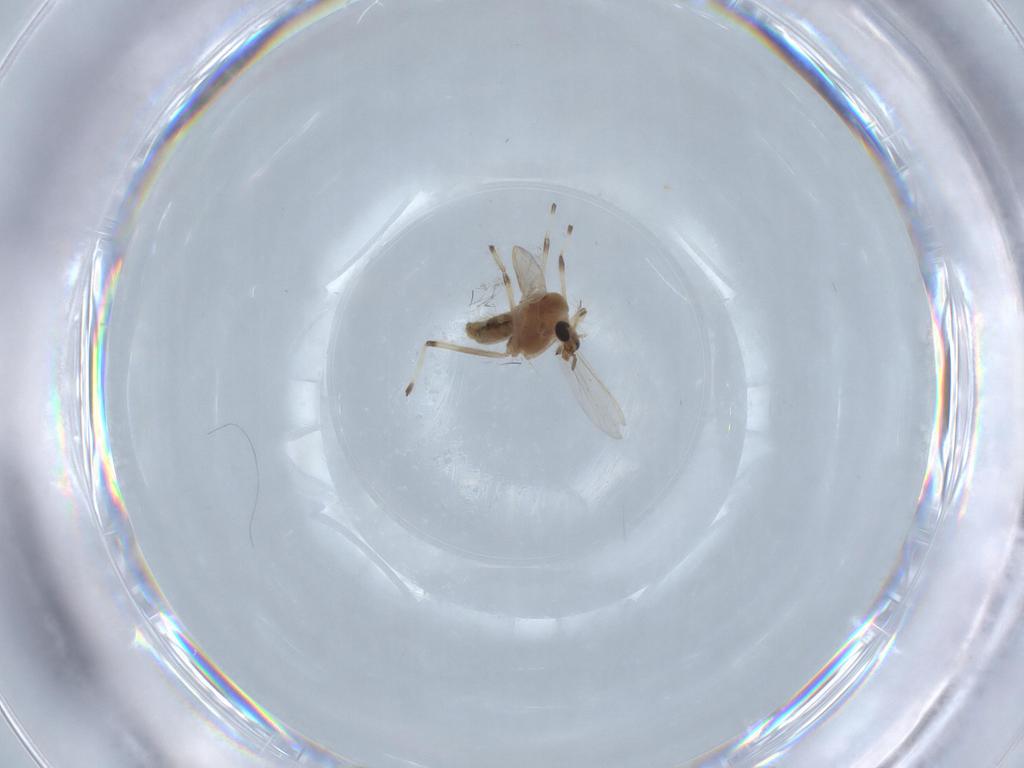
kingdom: Animalia
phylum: Arthropoda
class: Insecta
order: Diptera
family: Chironomidae
